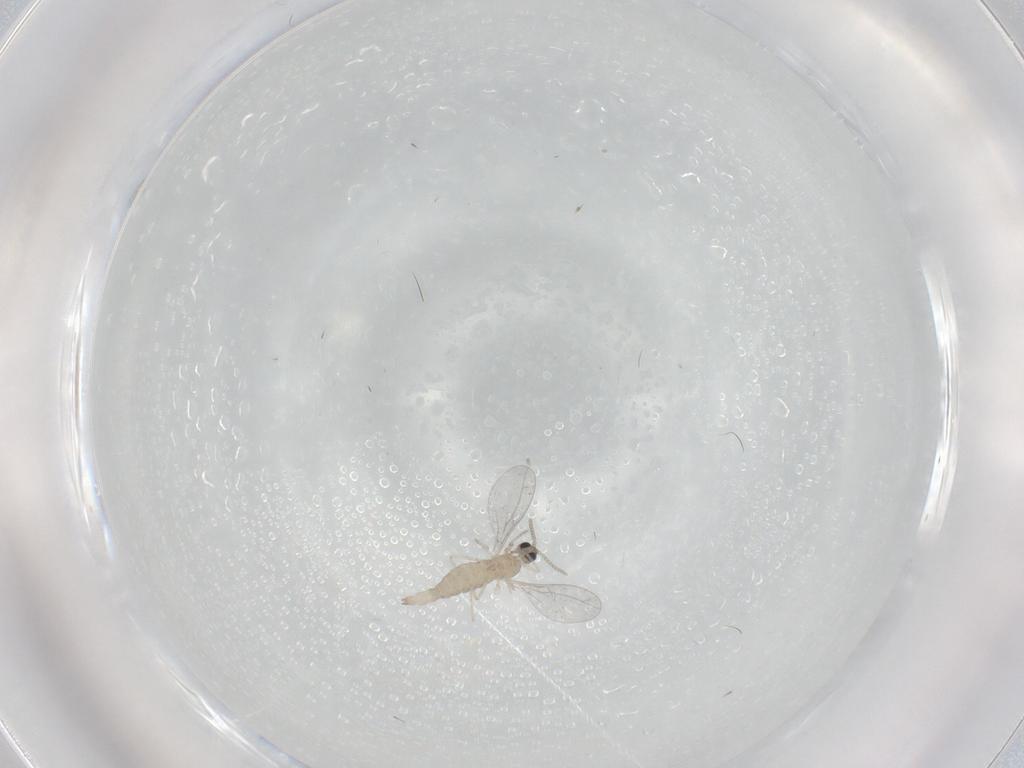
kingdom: Animalia
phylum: Arthropoda
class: Insecta
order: Diptera
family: Cecidomyiidae
